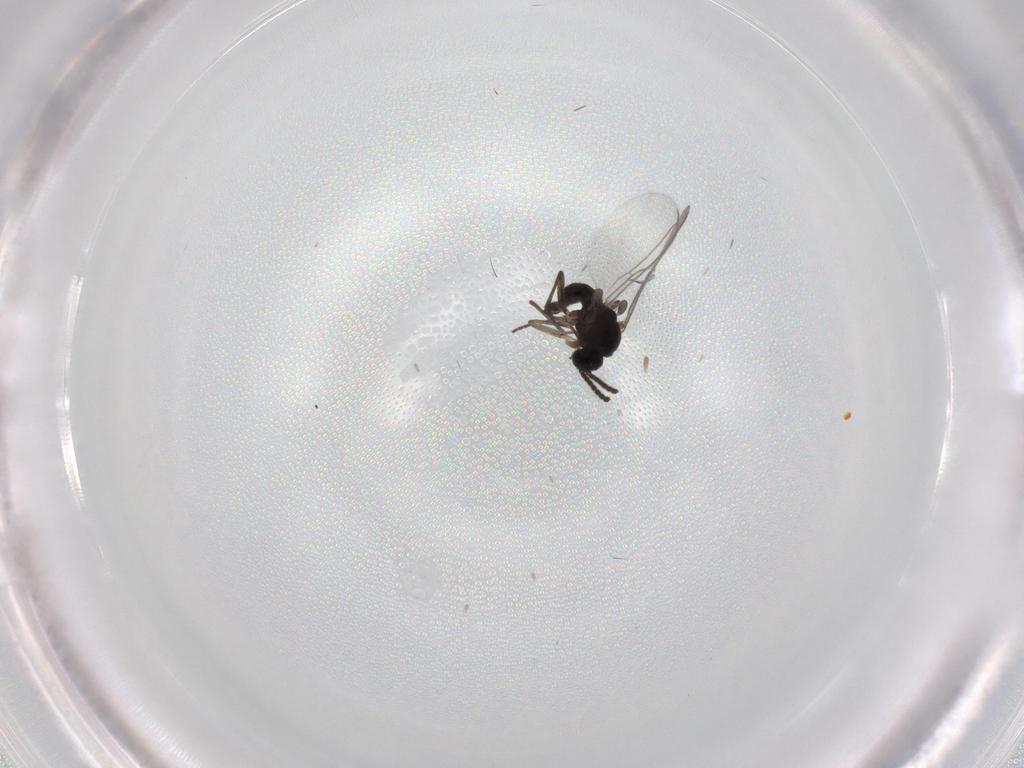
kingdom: Animalia
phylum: Arthropoda
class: Insecta
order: Diptera
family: Sciaridae
